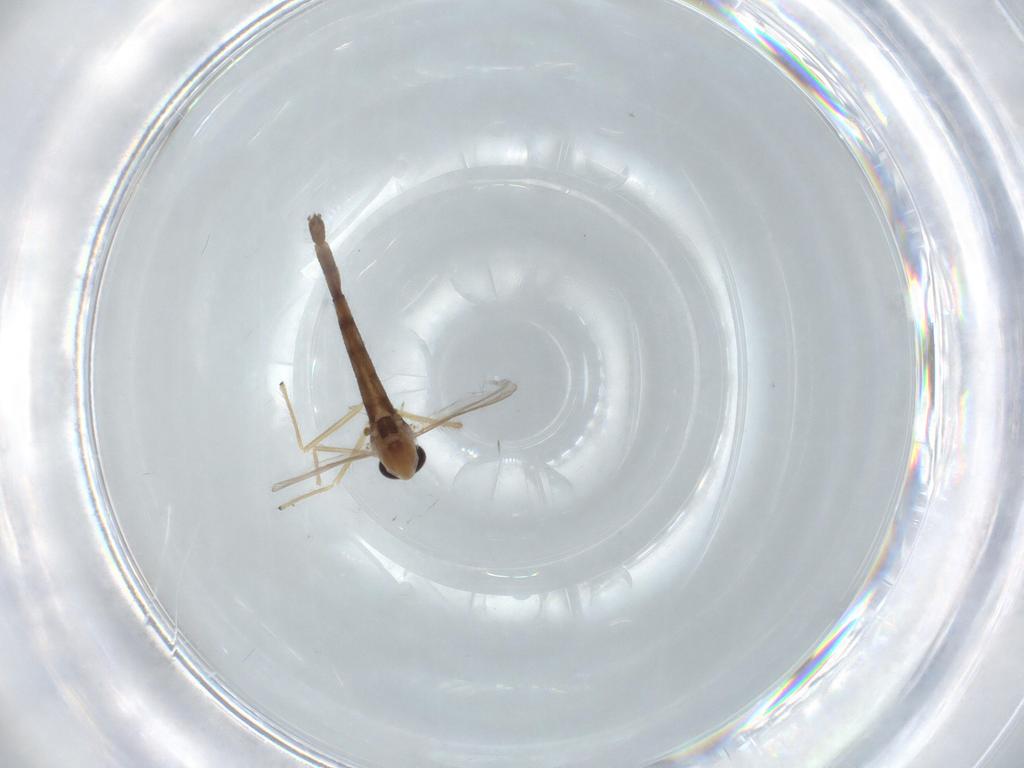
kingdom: Animalia
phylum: Arthropoda
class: Insecta
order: Diptera
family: Chironomidae
